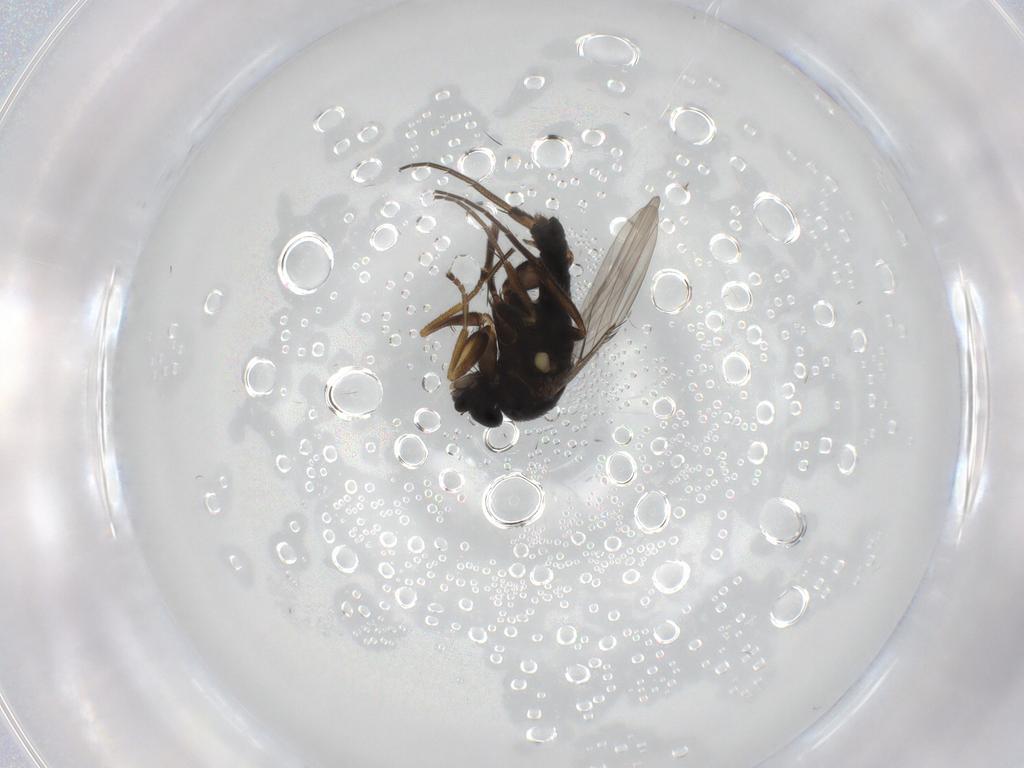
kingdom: Animalia
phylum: Arthropoda
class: Insecta
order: Diptera
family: Phoridae
